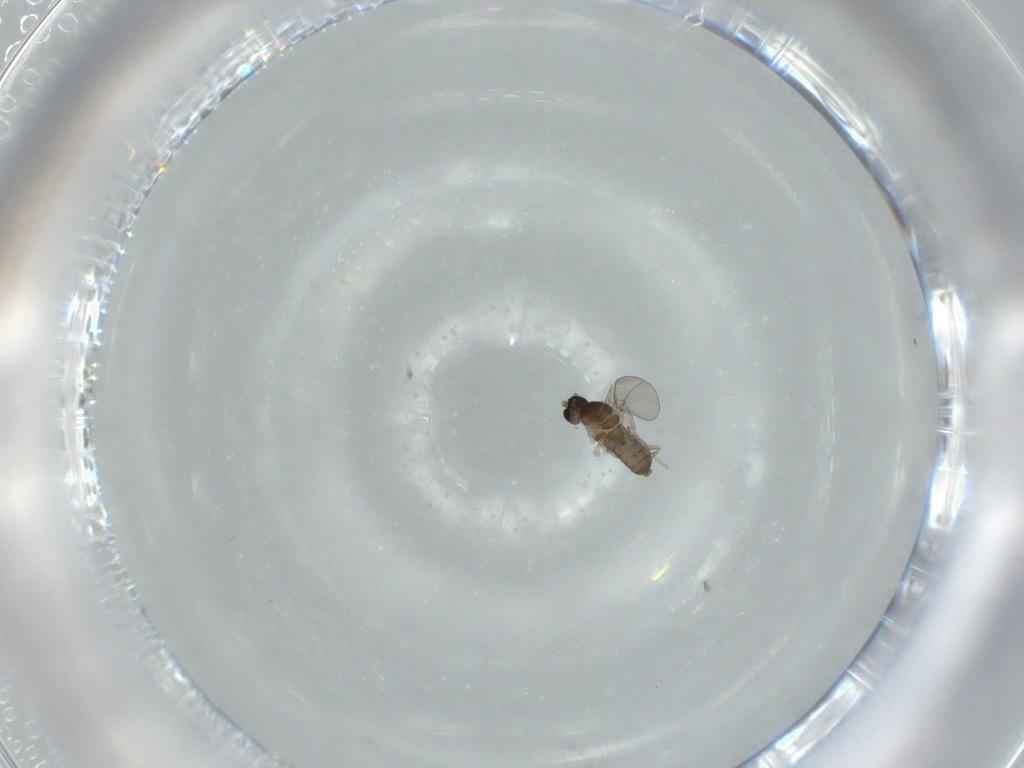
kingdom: Animalia
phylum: Arthropoda
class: Insecta
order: Diptera
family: Cecidomyiidae
